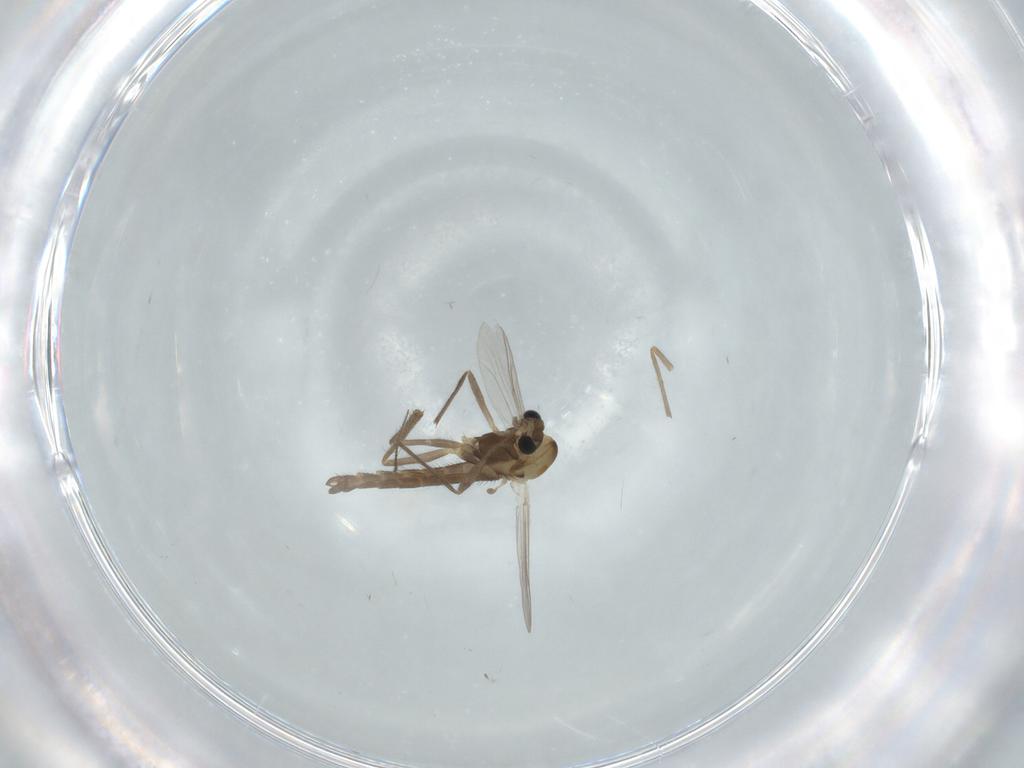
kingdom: Animalia
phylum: Arthropoda
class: Insecta
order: Diptera
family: Chironomidae
